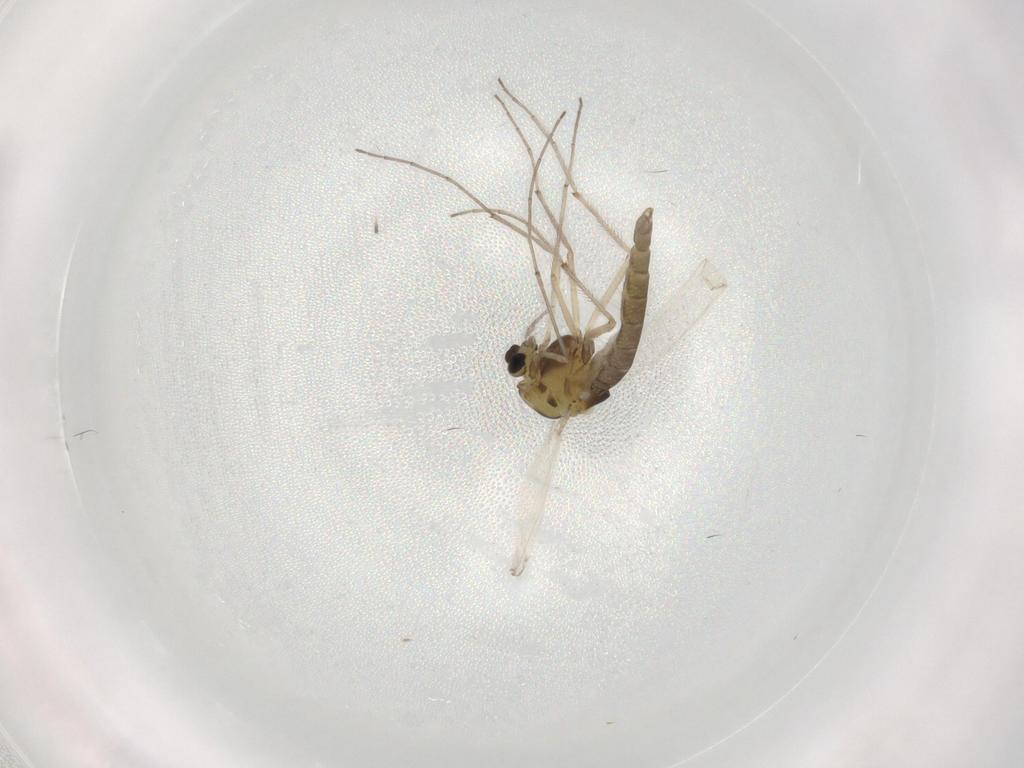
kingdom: Animalia
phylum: Arthropoda
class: Insecta
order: Diptera
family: Chironomidae
